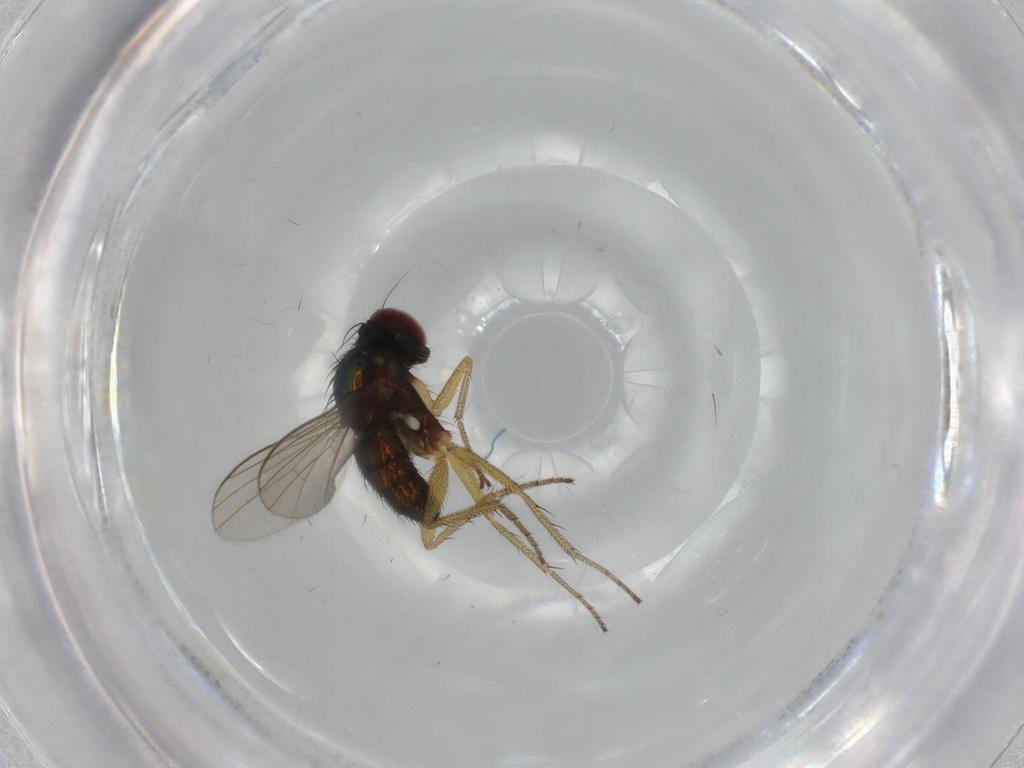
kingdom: Animalia
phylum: Arthropoda
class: Insecta
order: Diptera
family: Dolichopodidae
